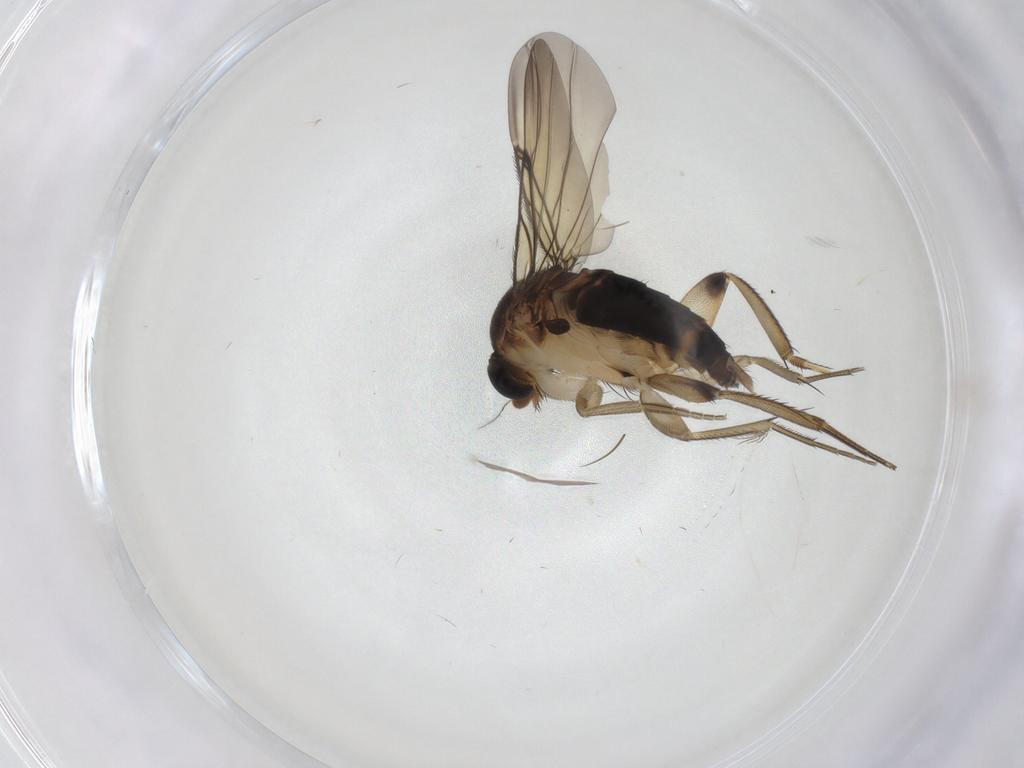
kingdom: Animalia
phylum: Arthropoda
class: Insecta
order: Diptera
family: Phoridae
